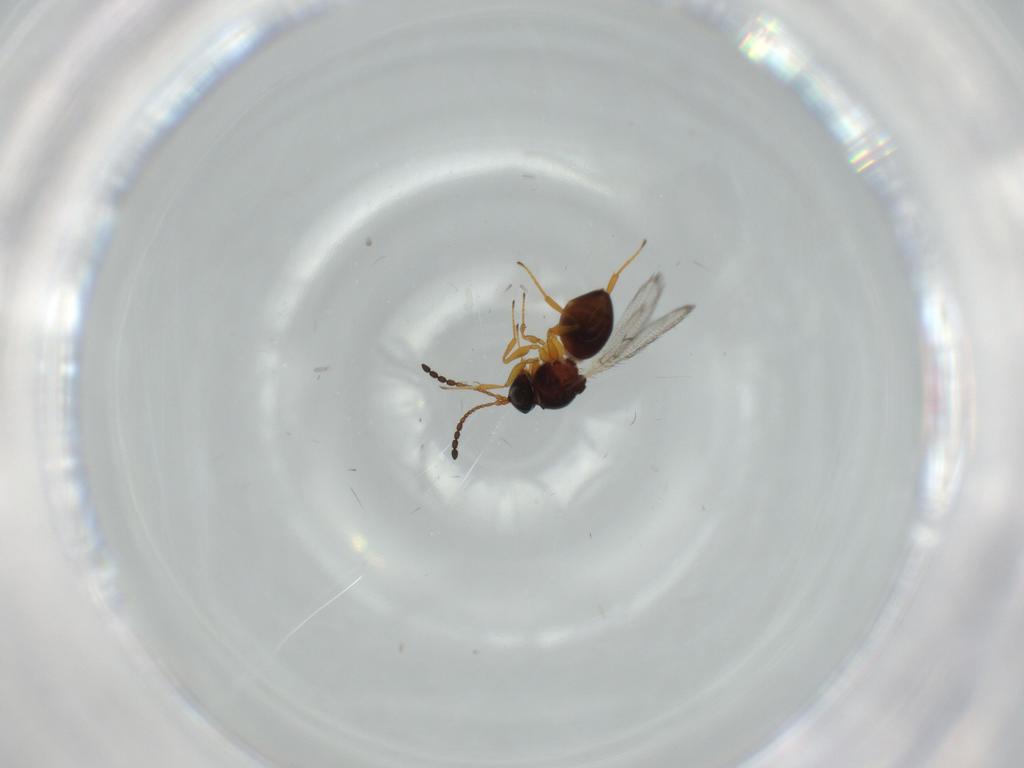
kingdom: Animalia
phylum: Arthropoda
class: Insecta
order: Hymenoptera
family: Figitidae
